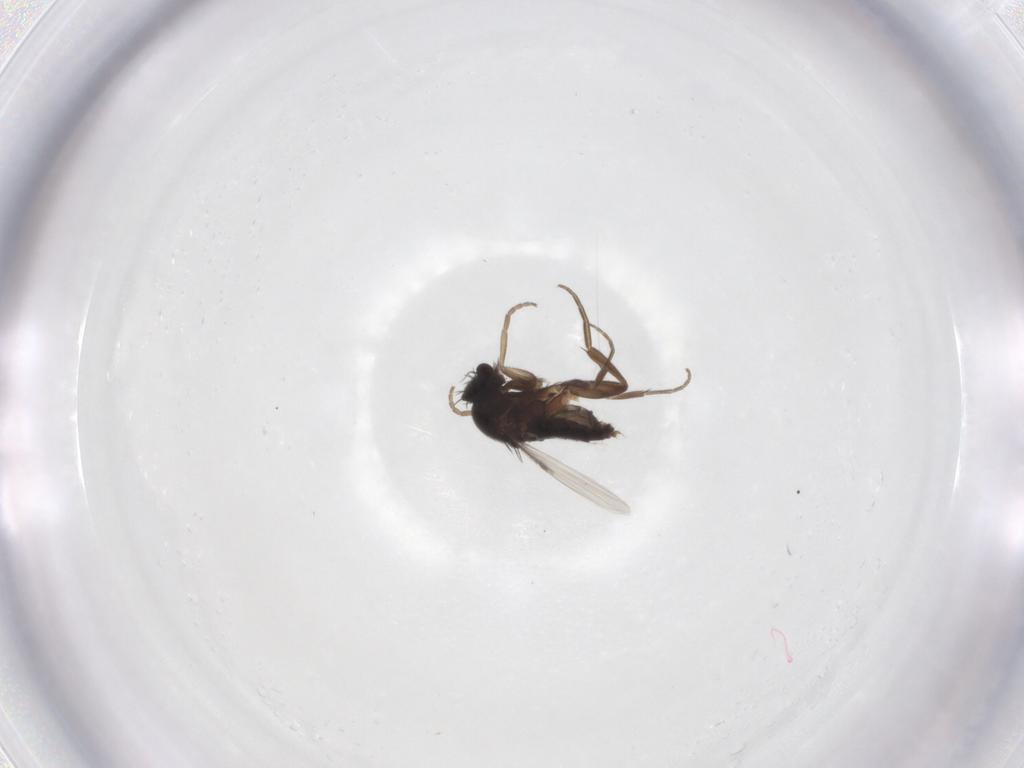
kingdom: Animalia
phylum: Arthropoda
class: Insecta
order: Diptera
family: Phoridae
